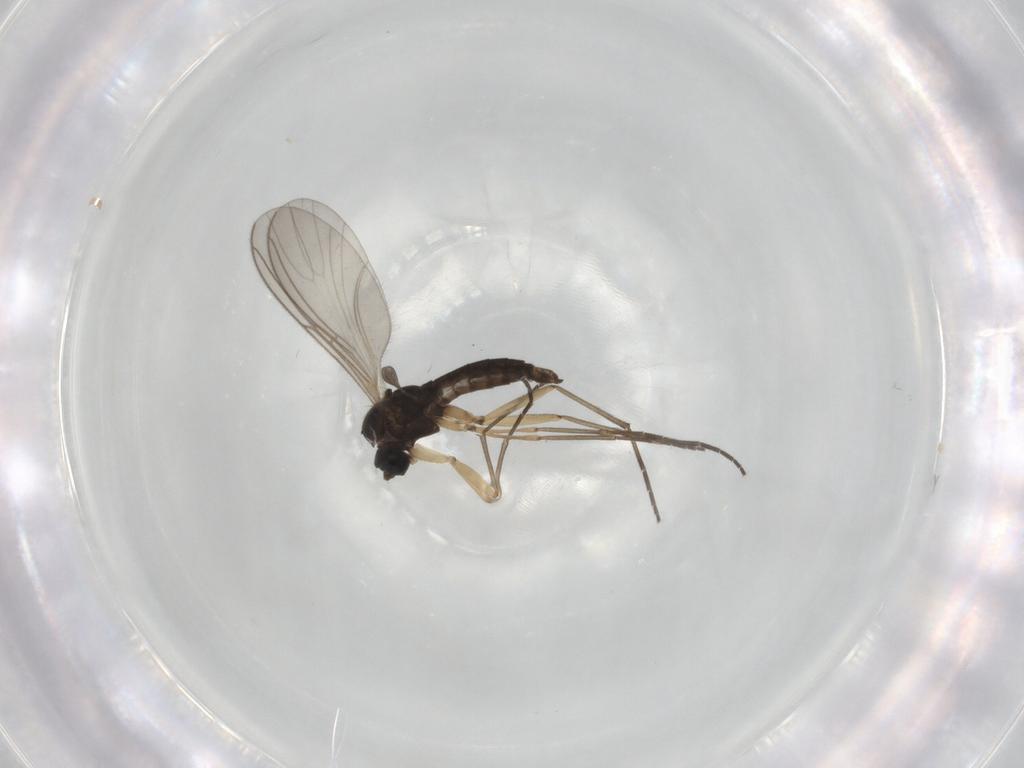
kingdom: Animalia
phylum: Arthropoda
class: Insecta
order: Diptera
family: Sciaridae
